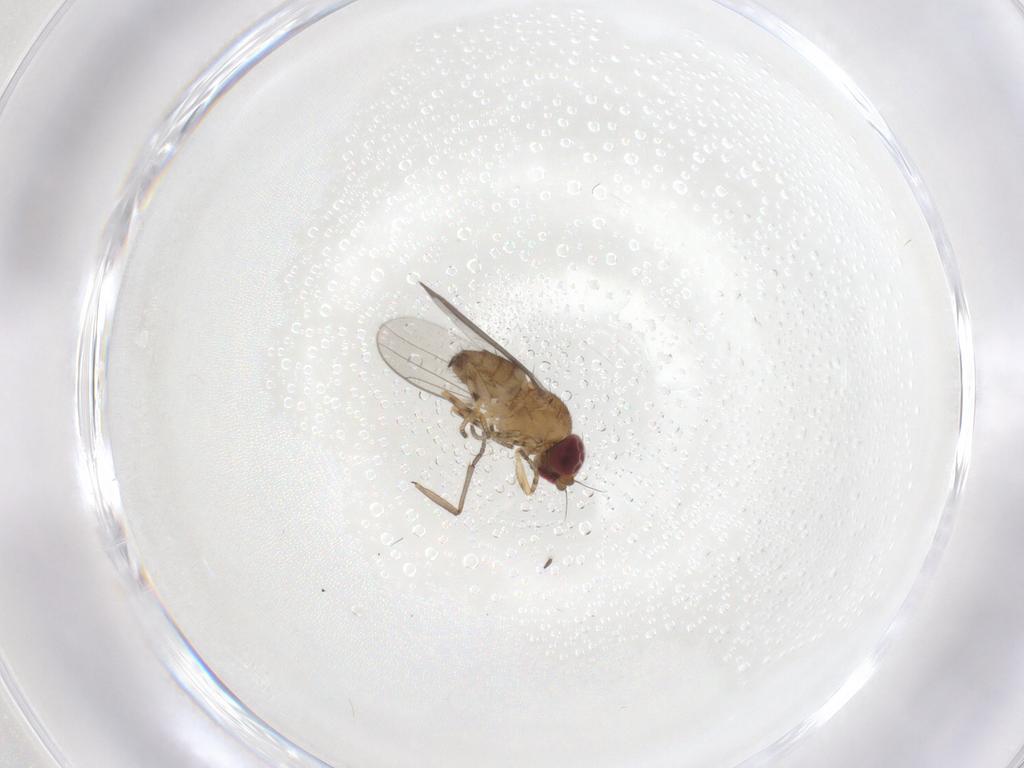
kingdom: Animalia
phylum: Arthropoda
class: Insecta
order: Diptera
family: Chloropidae
